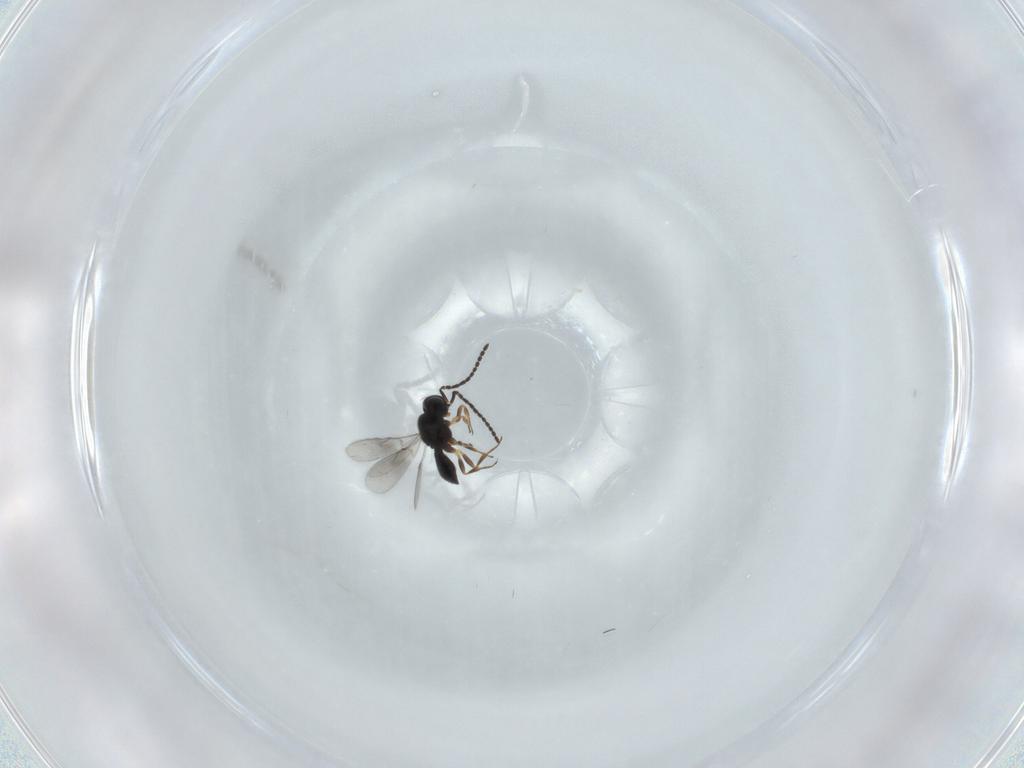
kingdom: Animalia
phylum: Arthropoda
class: Insecta
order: Hymenoptera
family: Scelionidae
